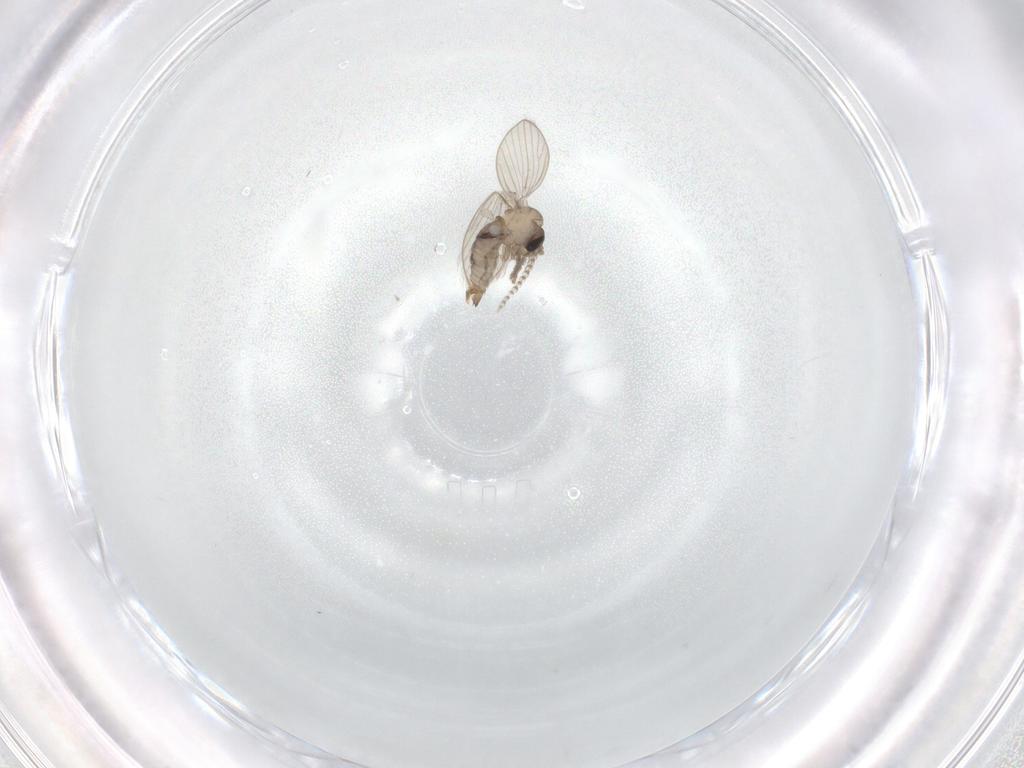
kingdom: Animalia
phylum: Arthropoda
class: Insecta
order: Diptera
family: Psychodidae
